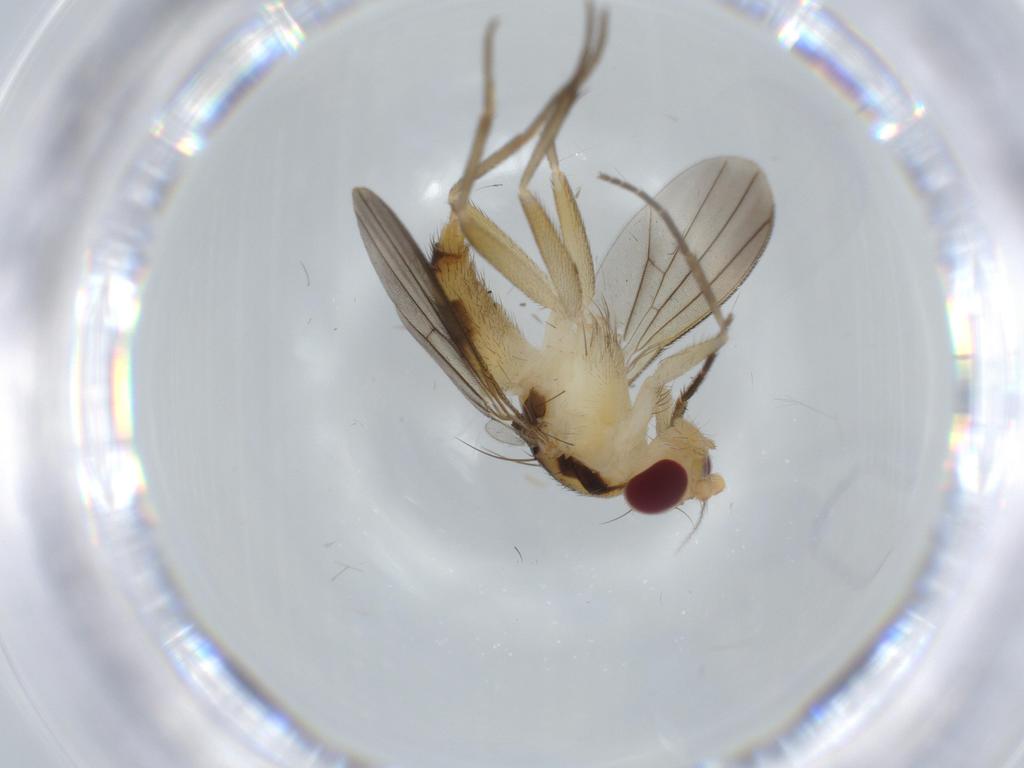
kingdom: Animalia
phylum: Arthropoda
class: Insecta
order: Diptera
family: Clusiidae
